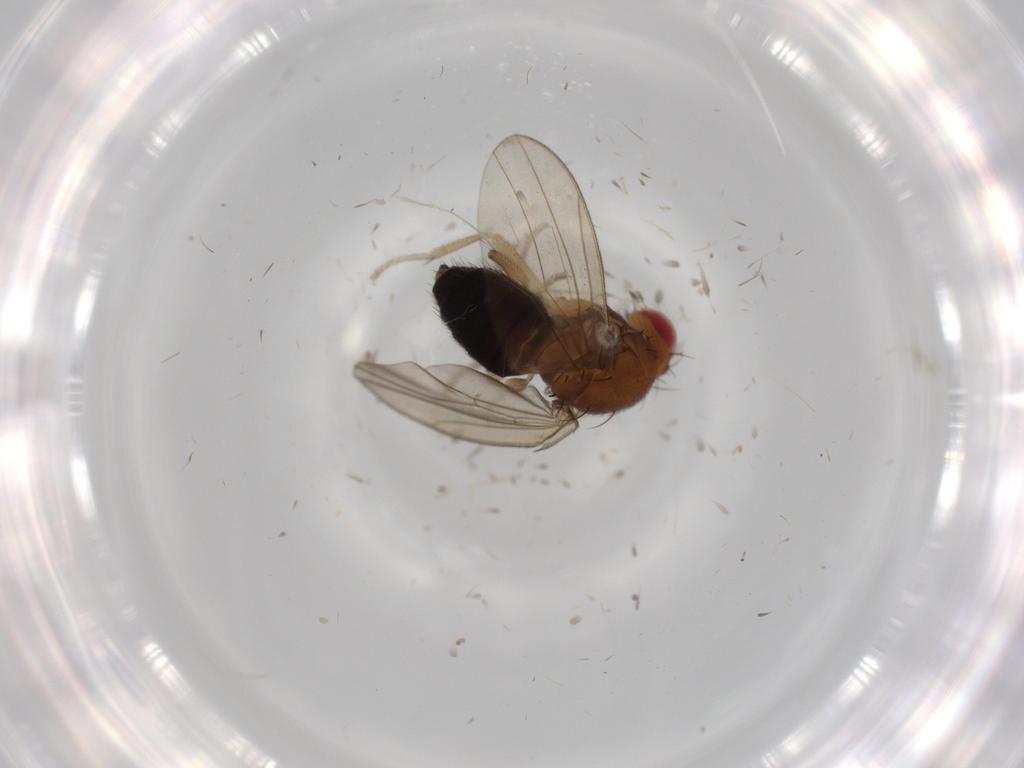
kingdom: Animalia
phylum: Arthropoda
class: Insecta
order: Diptera
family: Drosophilidae
